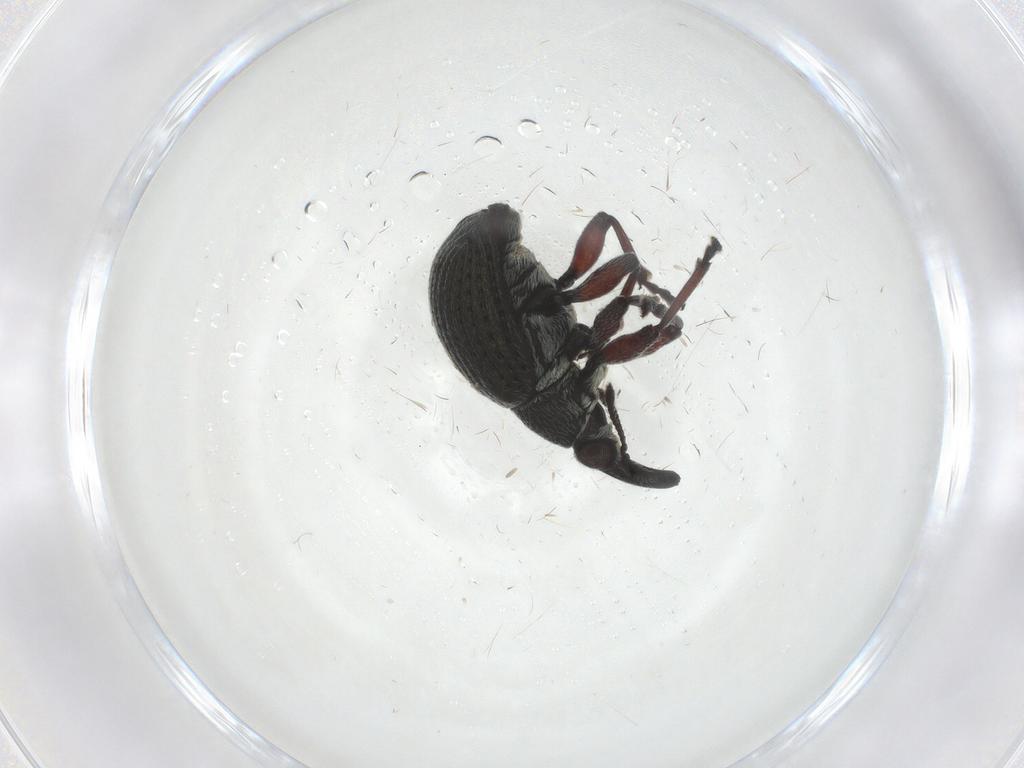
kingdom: Animalia
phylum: Arthropoda
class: Insecta
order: Coleoptera
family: Brentidae
